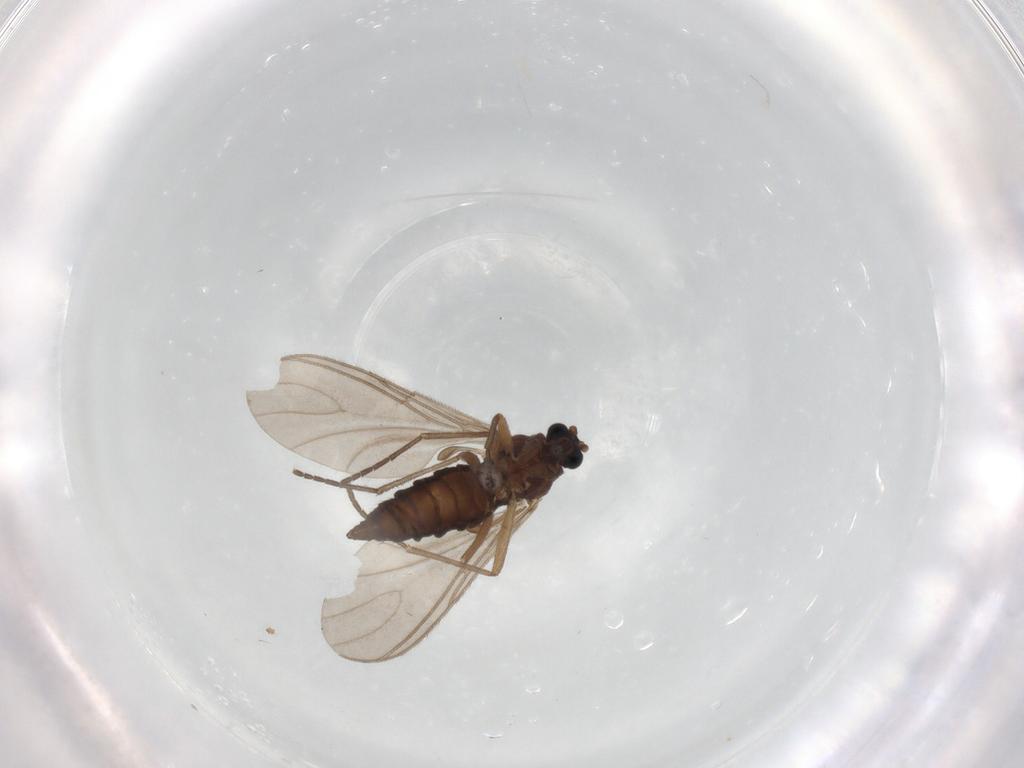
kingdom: Animalia
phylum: Arthropoda
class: Insecta
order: Diptera
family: Sciaridae
